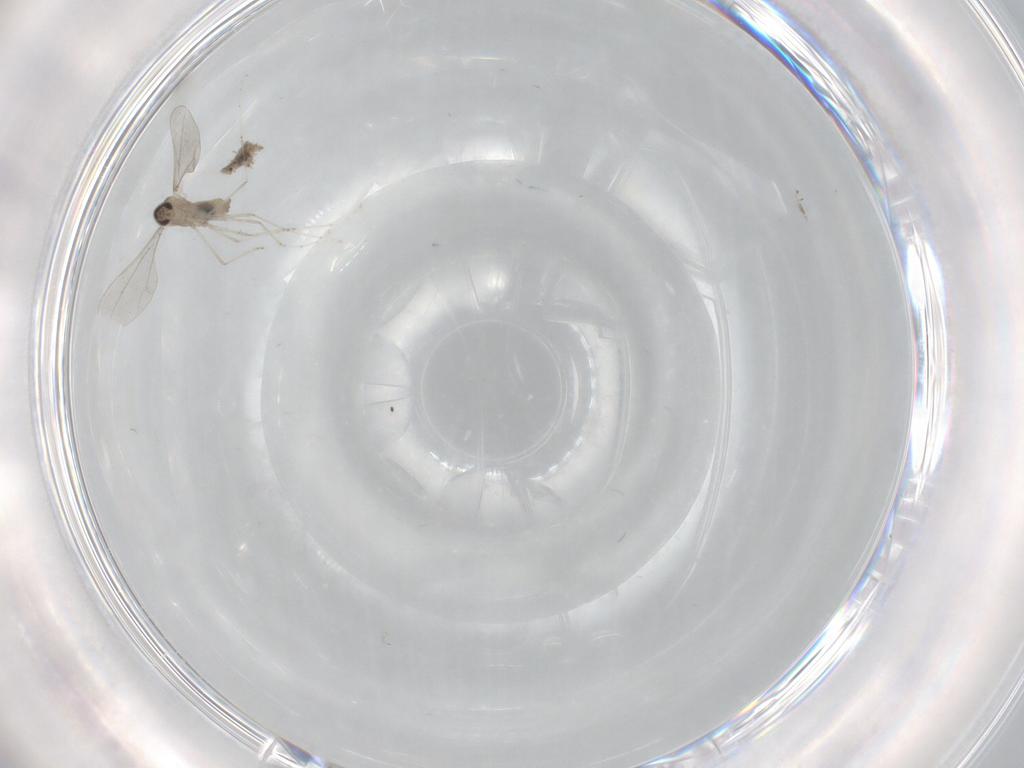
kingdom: Animalia
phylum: Arthropoda
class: Insecta
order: Diptera
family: Cecidomyiidae
